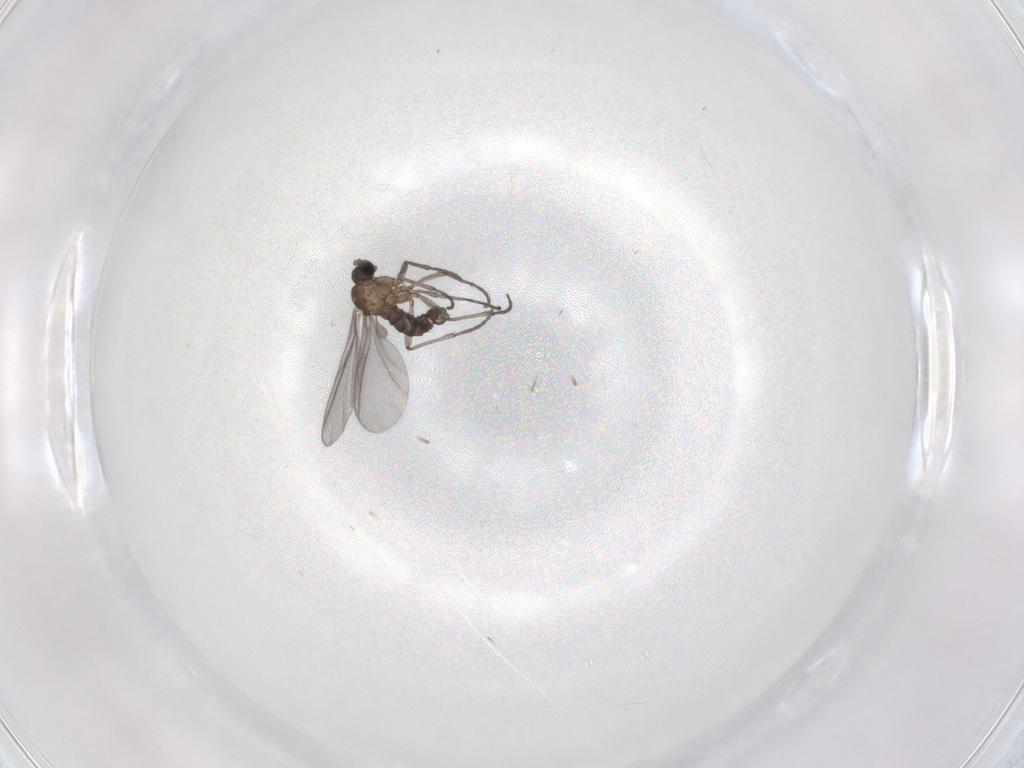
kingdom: Animalia
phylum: Arthropoda
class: Insecta
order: Diptera
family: Sciaridae
